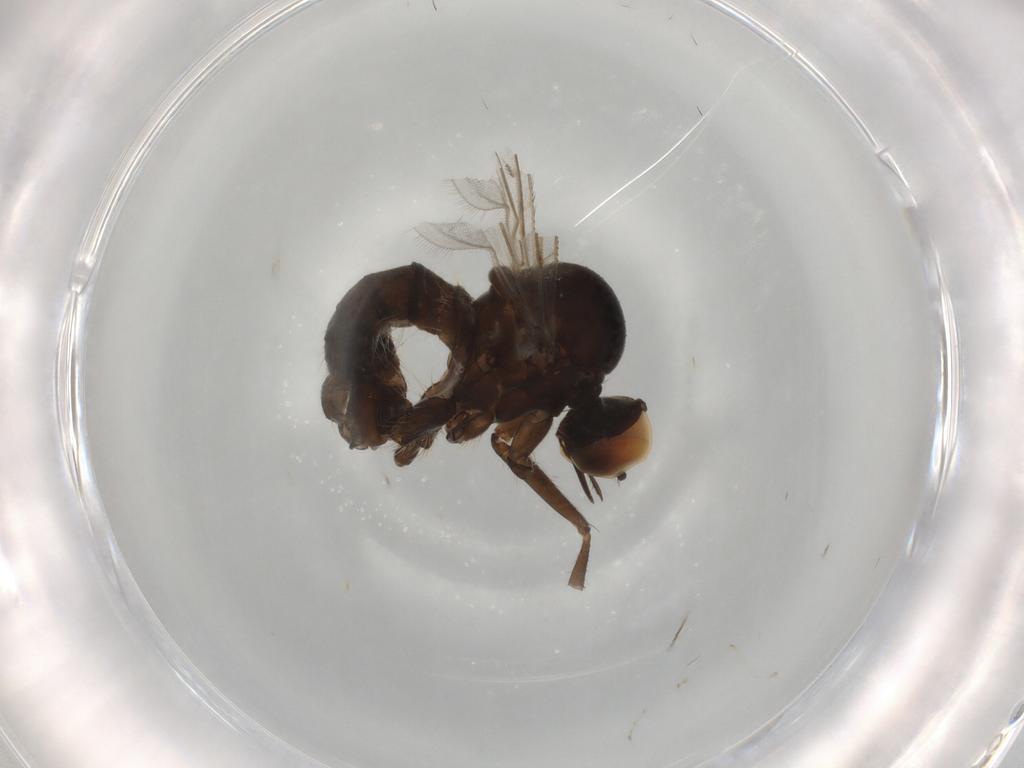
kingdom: Animalia
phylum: Arthropoda
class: Insecta
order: Diptera
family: Hybotidae
